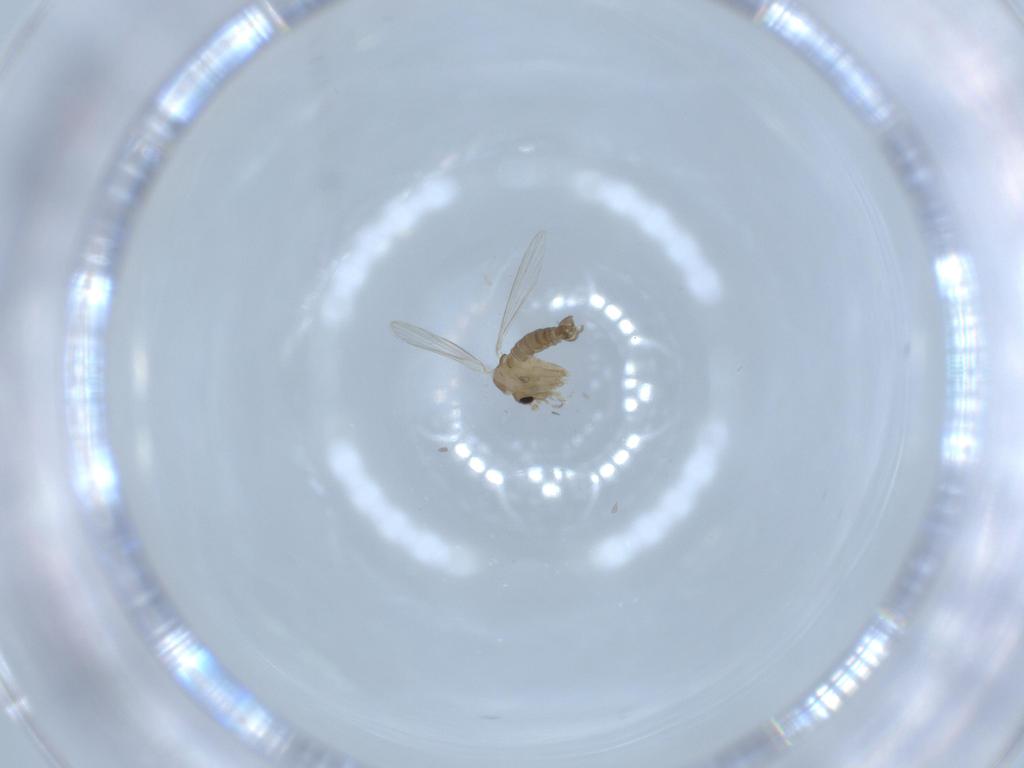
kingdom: Animalia
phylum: Arthropoda
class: Insecta
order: Diptera
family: Psychodidae
